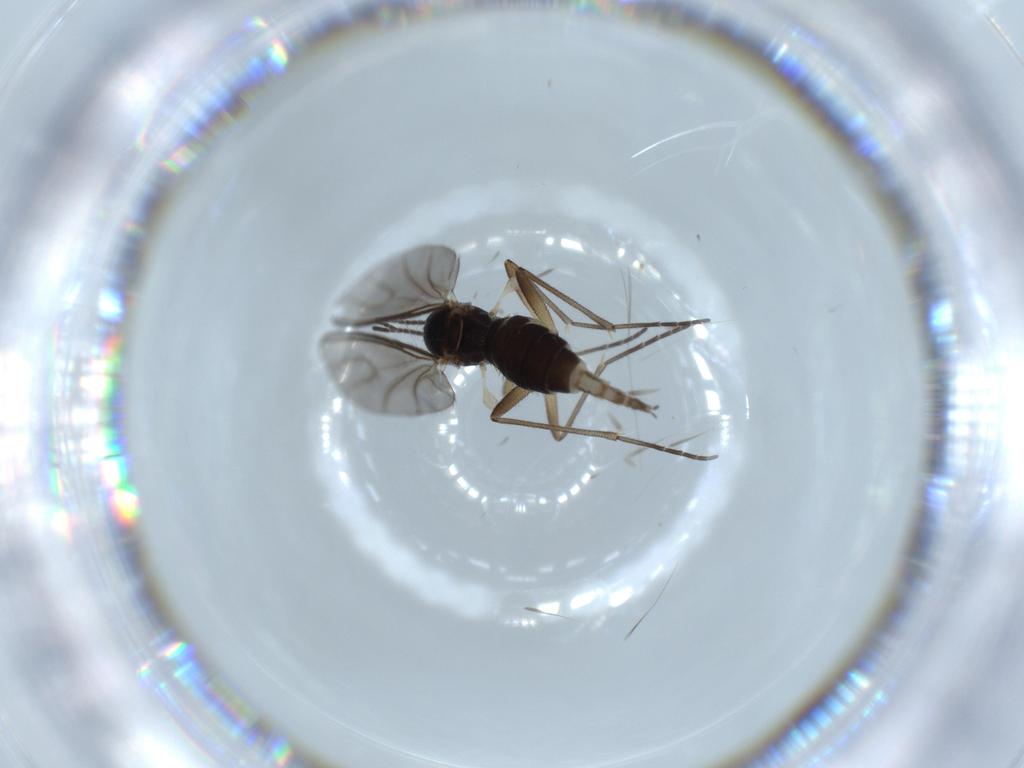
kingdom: Animalia
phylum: Arthropoda
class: Insecta
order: Diptera
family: Sciaridae
